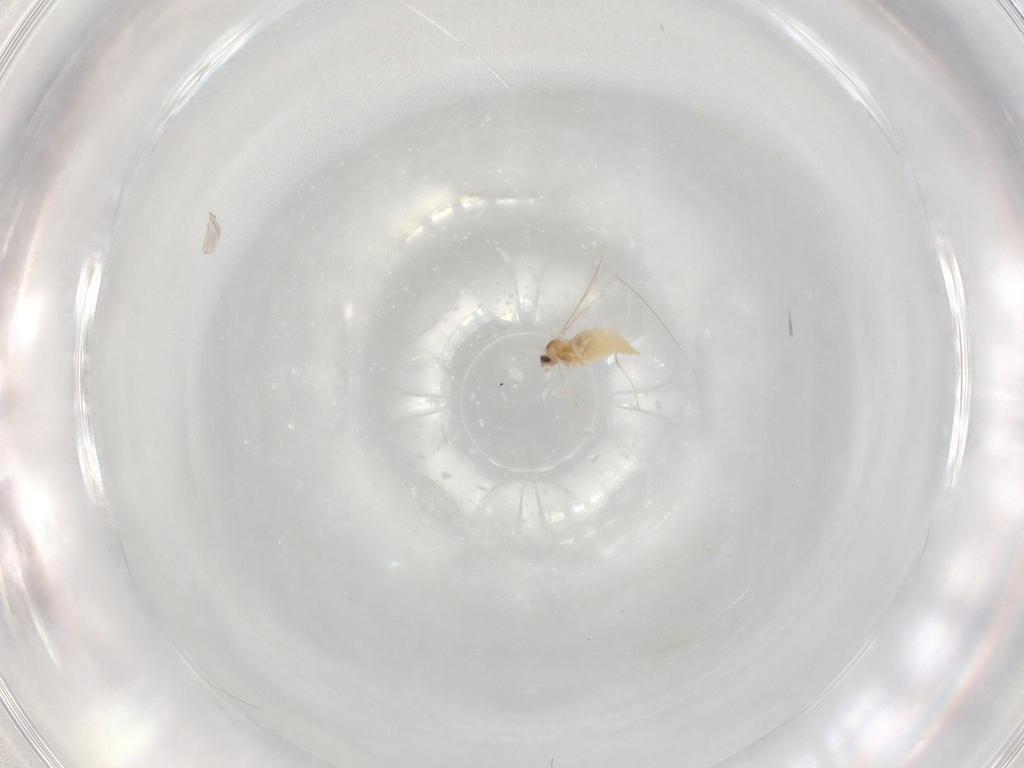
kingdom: Animalia
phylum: Arthropoda
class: Insecta
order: Diptera
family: Cecidomyiidae
